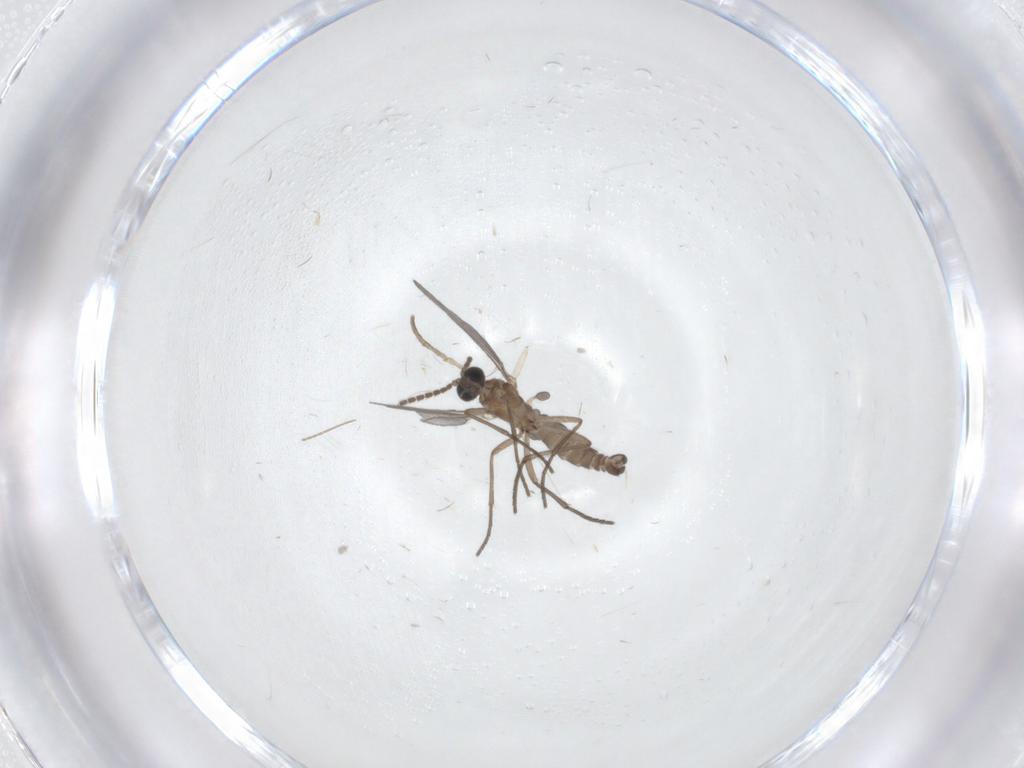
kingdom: Animalia
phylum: Arthropoda
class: Insecta
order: Diptera
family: Sciaridae
